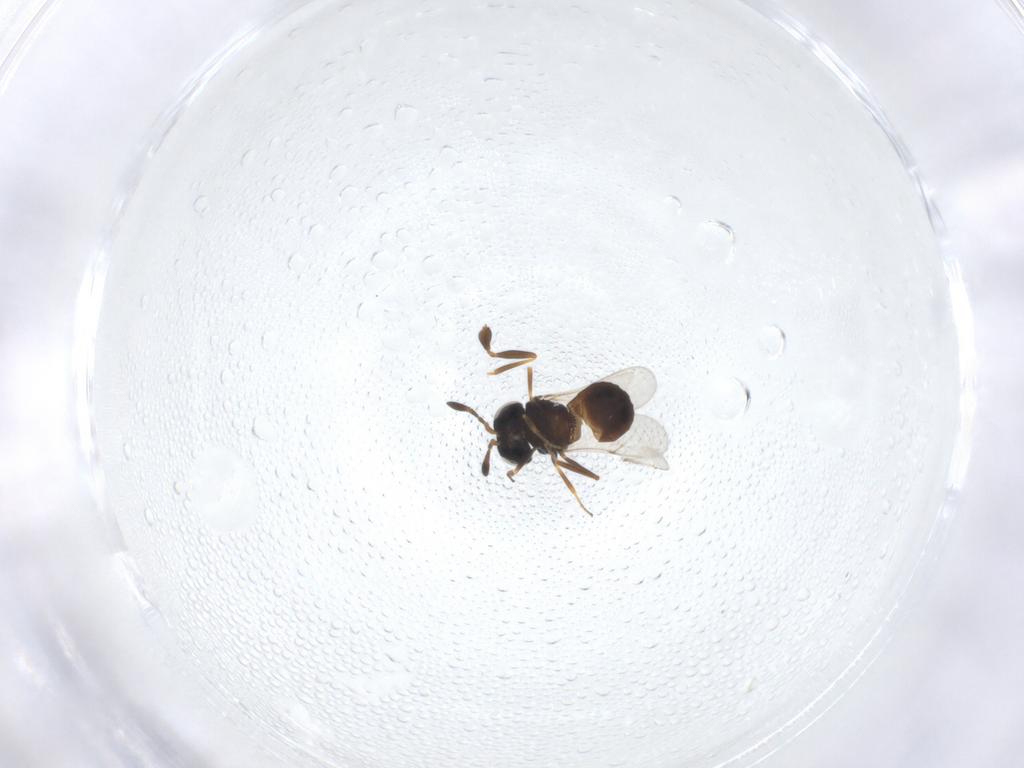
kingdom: Animalia
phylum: Arthropoda
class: Insecta
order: Hymenoptera
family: Scelionidae
